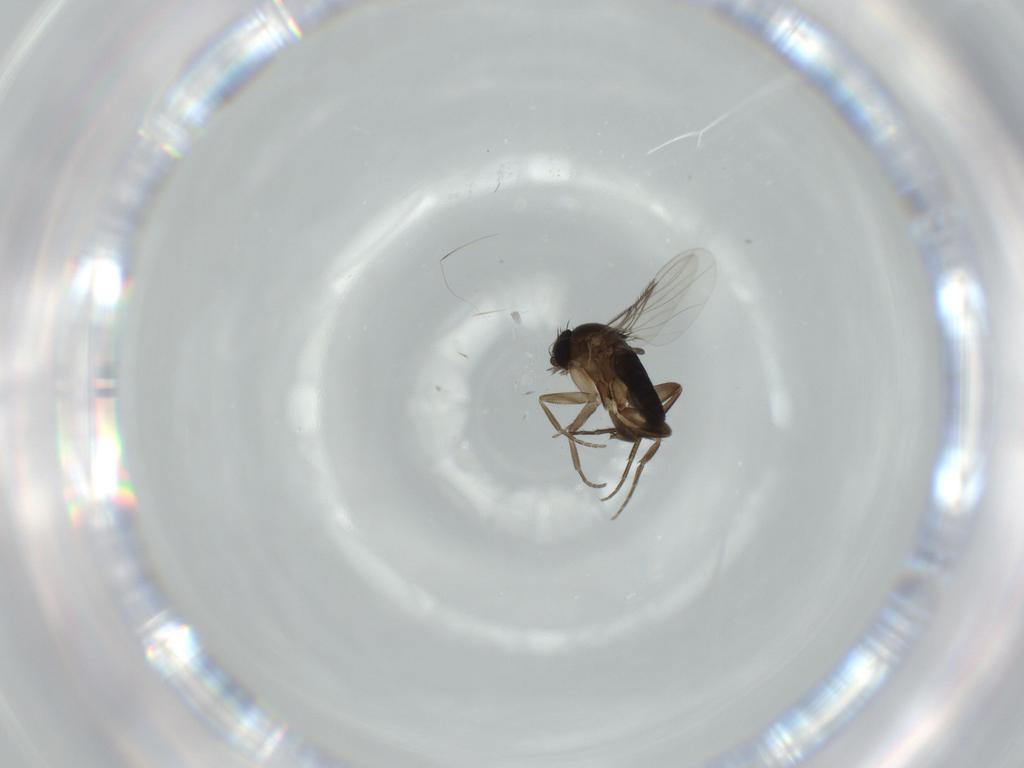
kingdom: Animalia
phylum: Arthropoda
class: Insecta
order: Diptera
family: Phoridae
